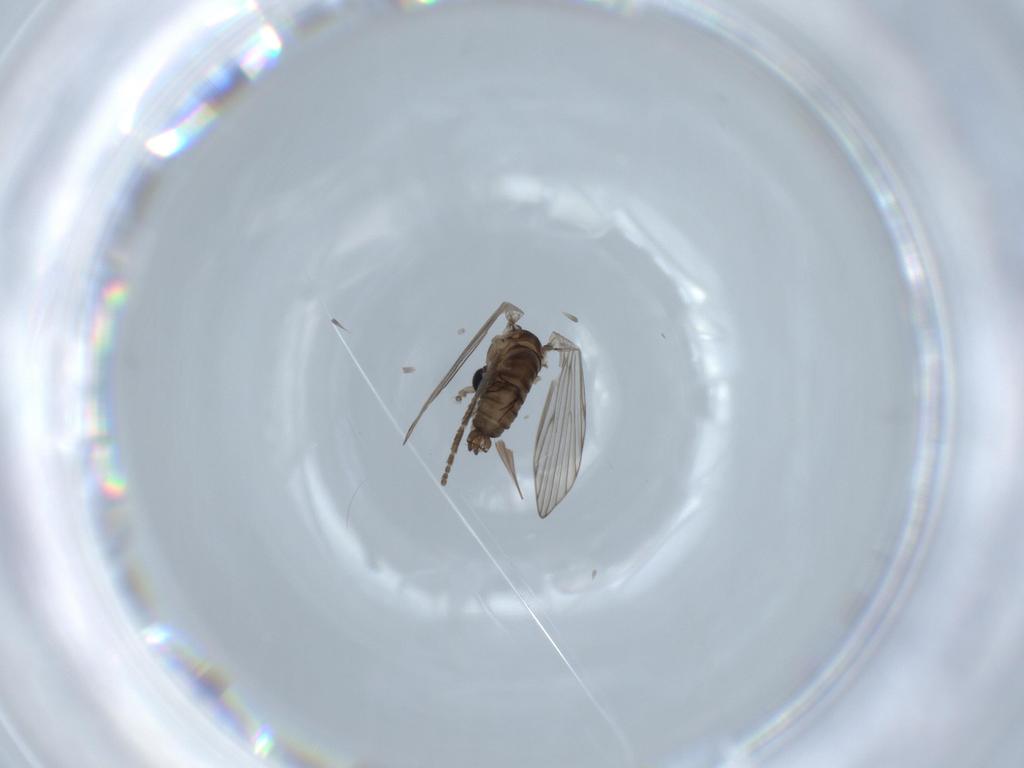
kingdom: Animalia
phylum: Arthropoda
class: Insecta
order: Diptera
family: Psychodidae
